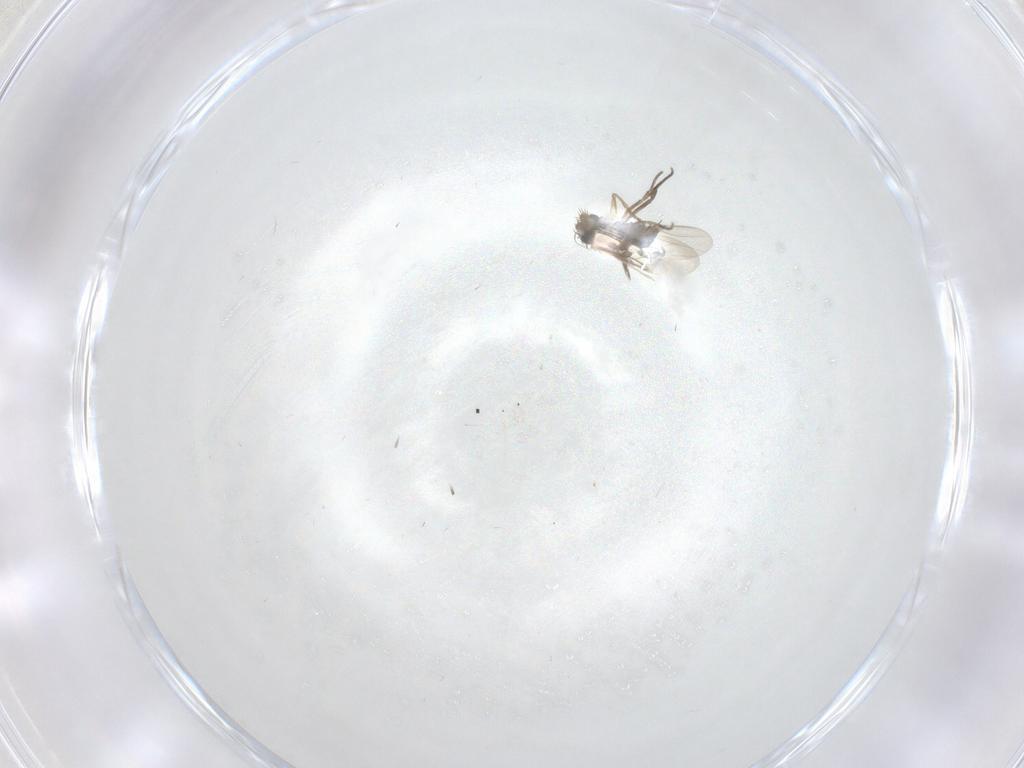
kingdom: Animalia
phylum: Arthropoda
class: Insecta
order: Diptera
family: Phoridae
